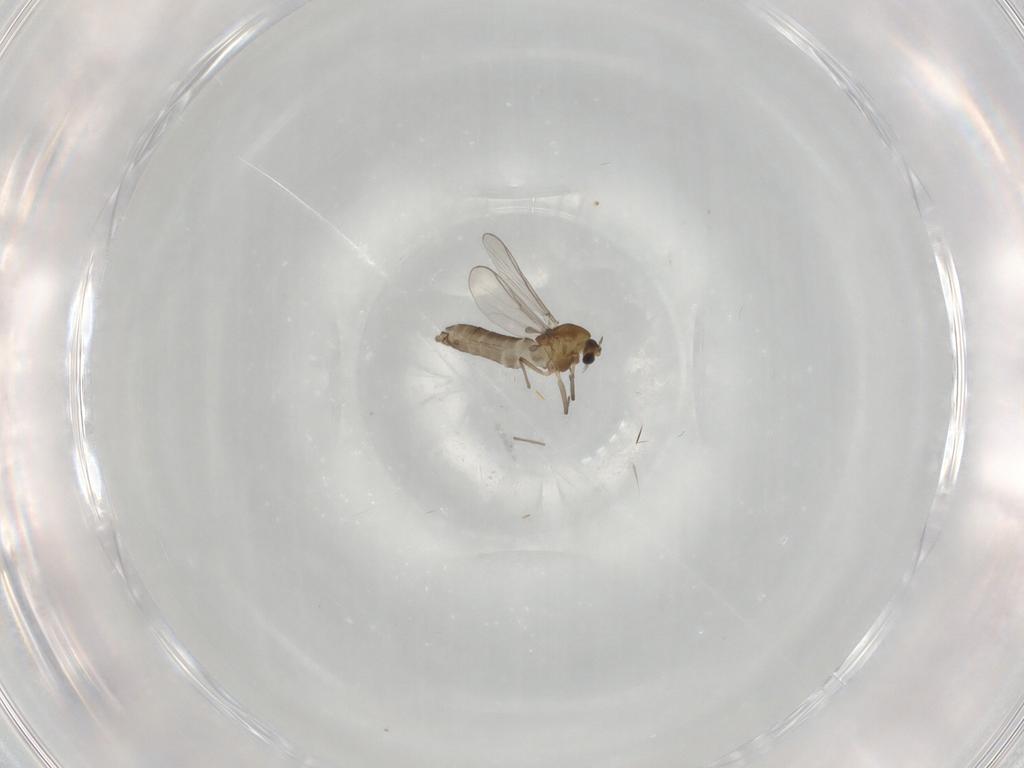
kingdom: Animalia
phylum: Arthropoda
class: Insecta
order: Diptera
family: Chironomidae
